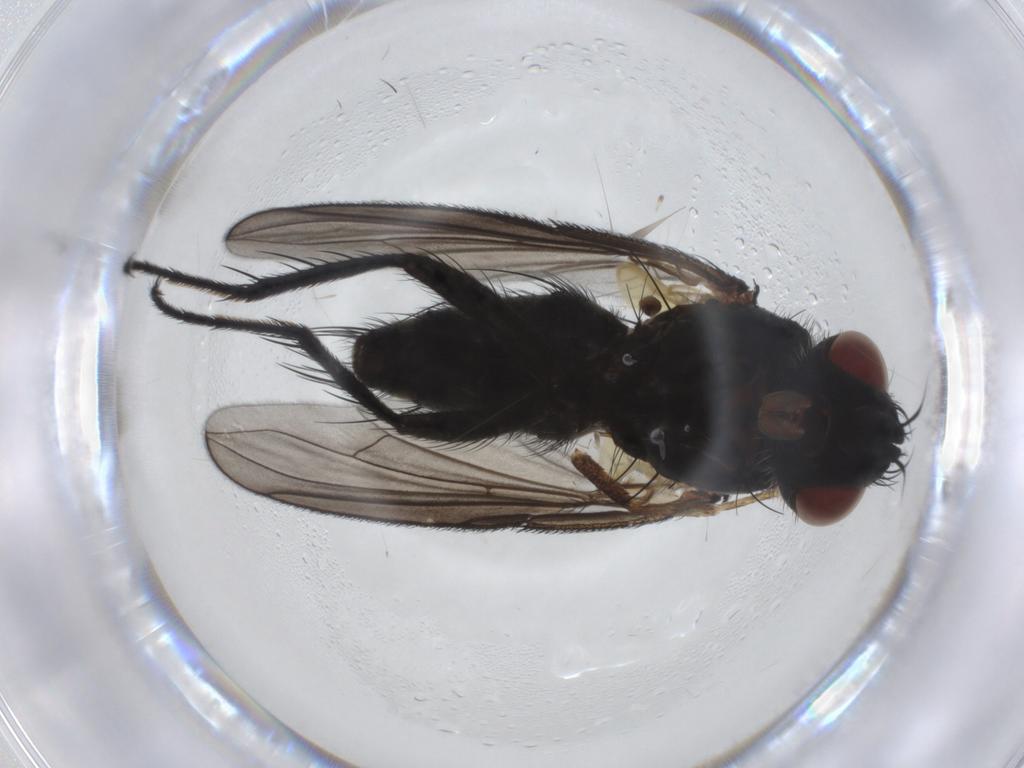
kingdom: Animalia
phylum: Arthropoda
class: Insecta
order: Diptera
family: Tachinidae
